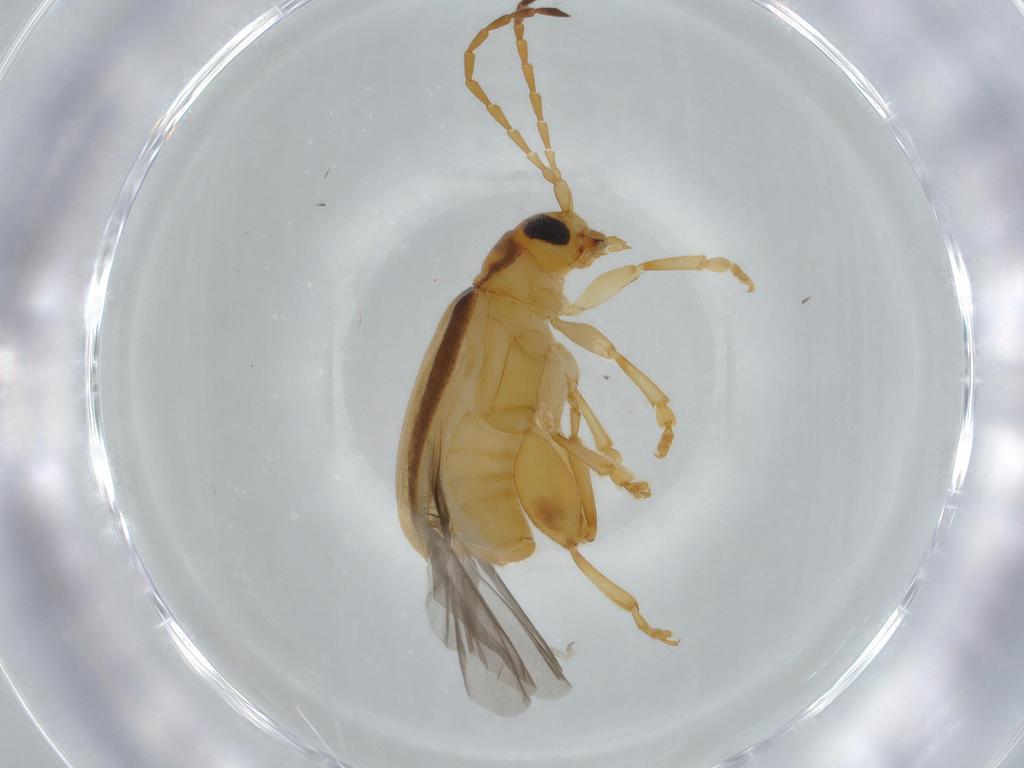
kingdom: Animalia
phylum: Arthropoda
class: Insecta
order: Coleoptera
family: Chrysomelidae
